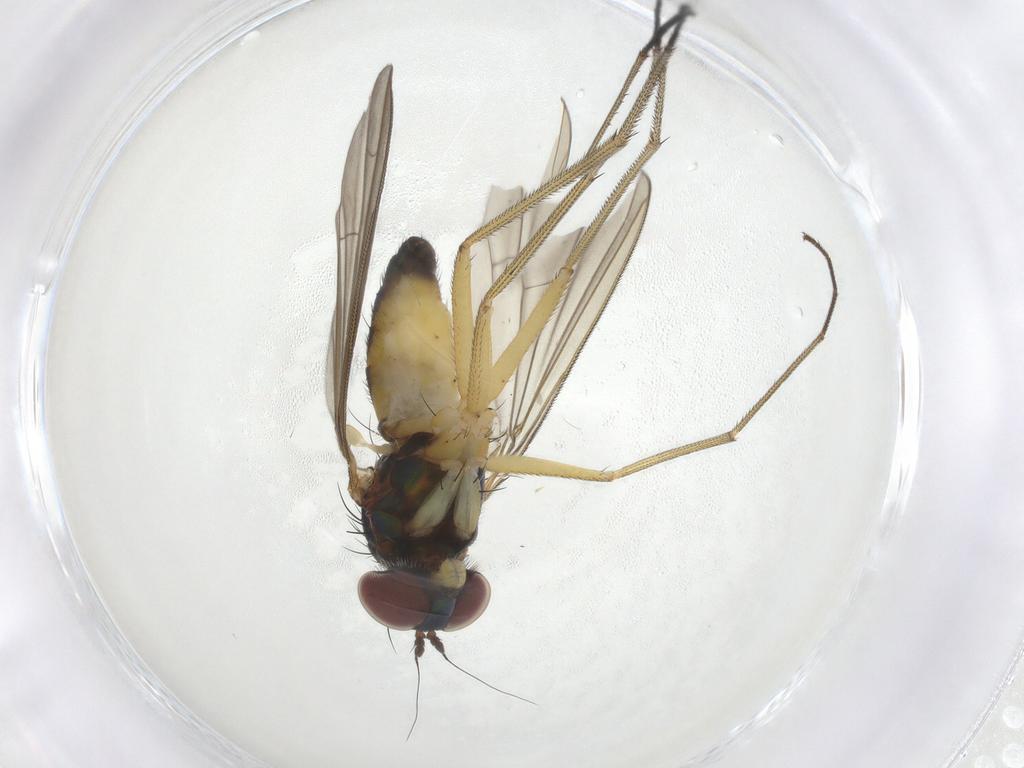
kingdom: Animalia
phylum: Arthropoda
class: Insecta
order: Diptera
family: Dolichopodidae
